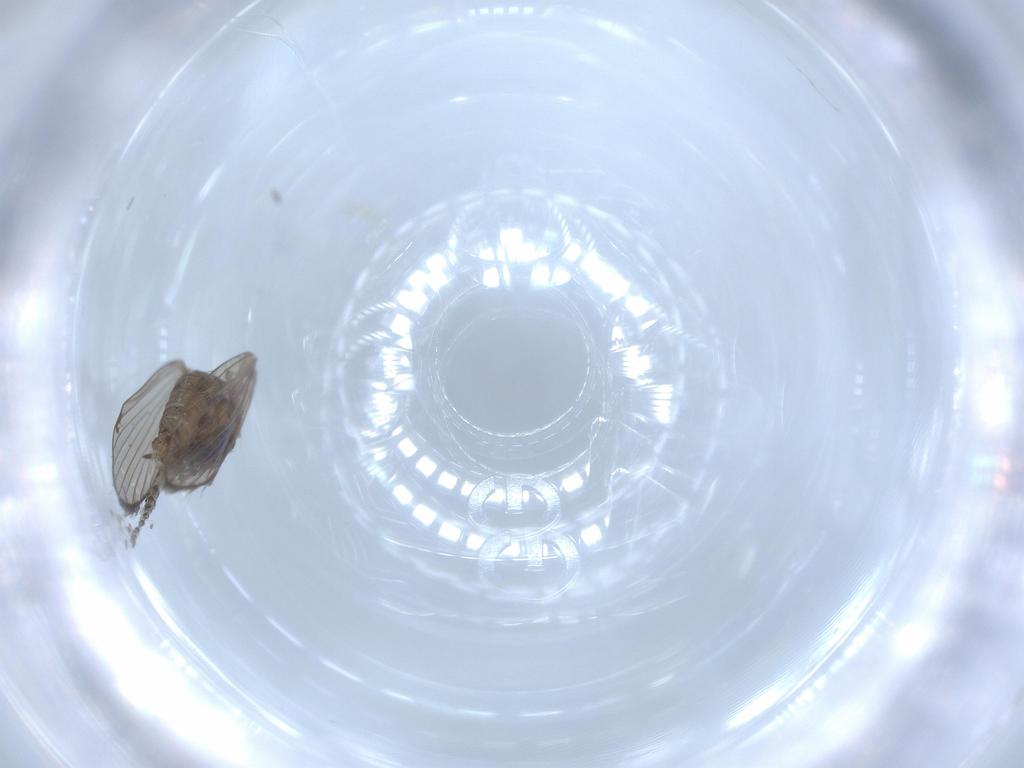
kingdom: Animalia
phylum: Arthropoda
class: Insecta
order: Diptera
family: Psychodidae
